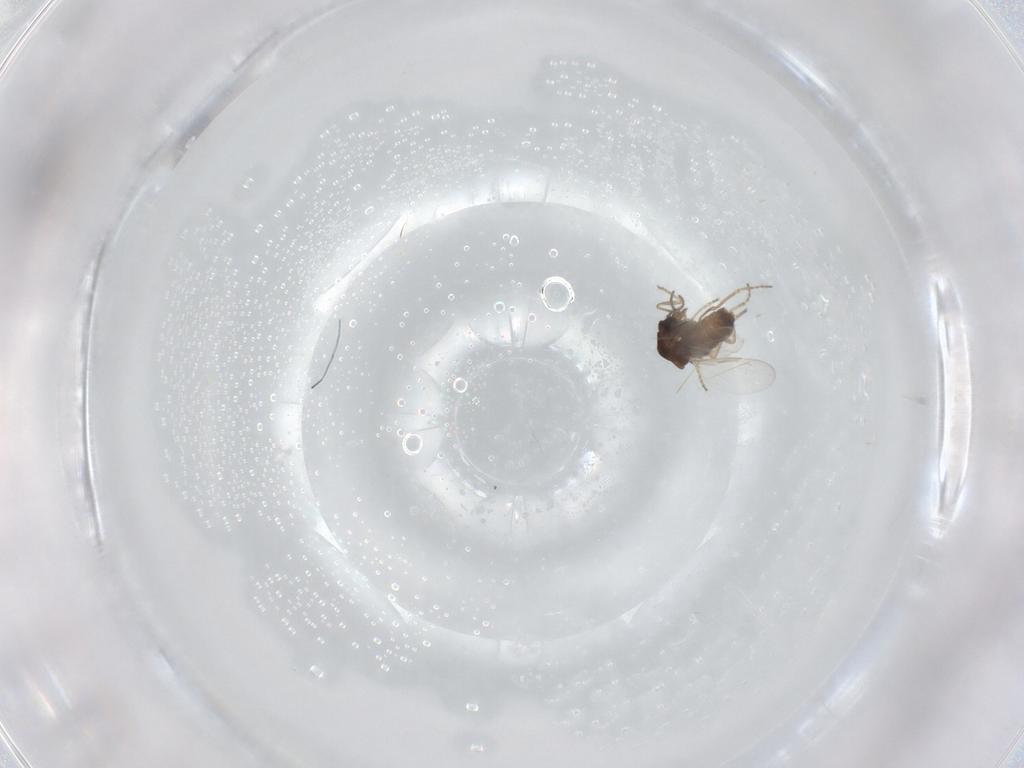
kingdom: Animalia
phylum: Arthropoda
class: Insecta
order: Diptera
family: Ceratopogonidae
